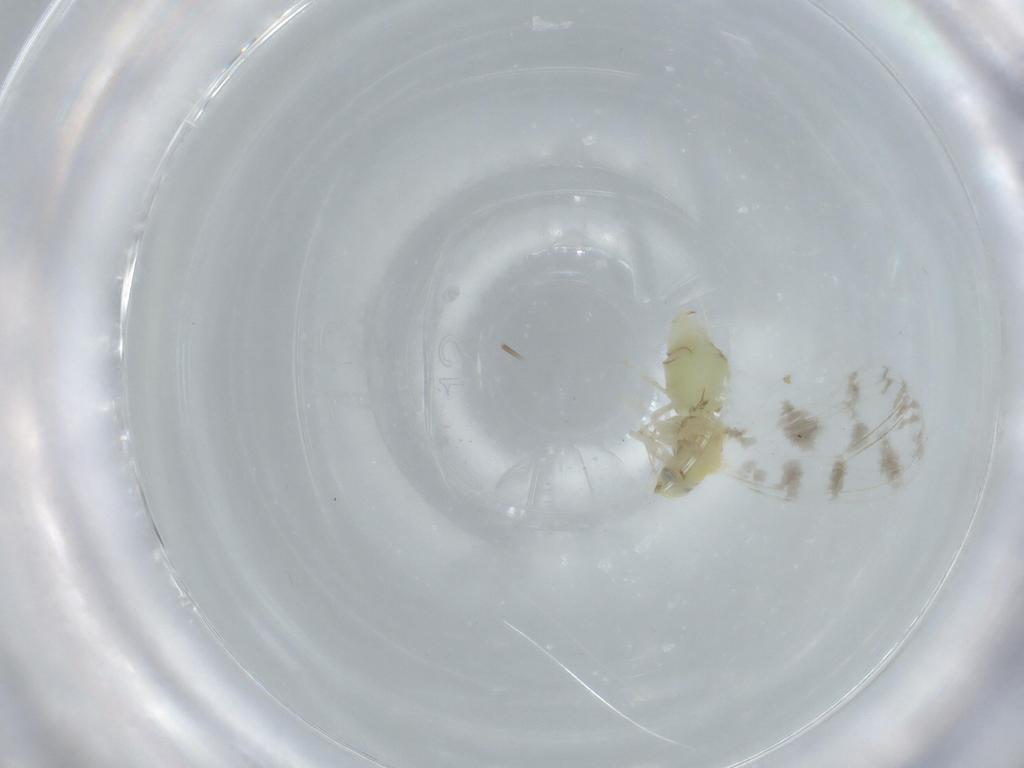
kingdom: Animalia
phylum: Arthropoda
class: Insecta
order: Hemiptera
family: Aleyrodidae
